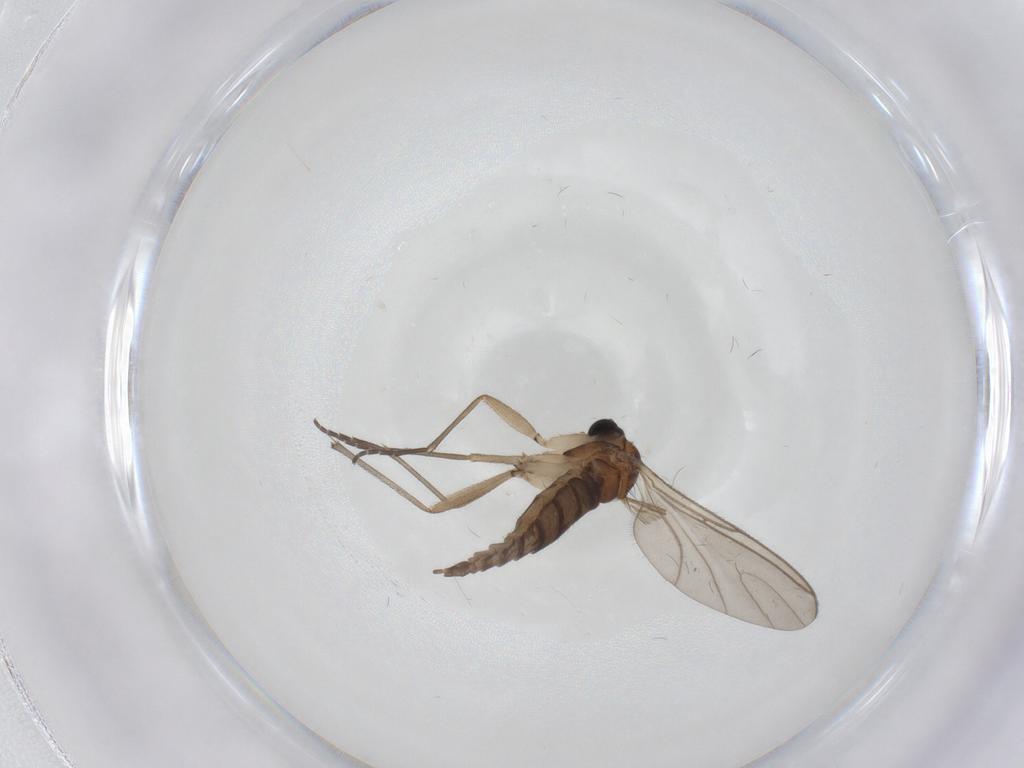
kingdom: Animalia
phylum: Arthropoda
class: Insecta
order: Diptera
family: Sciaridae
